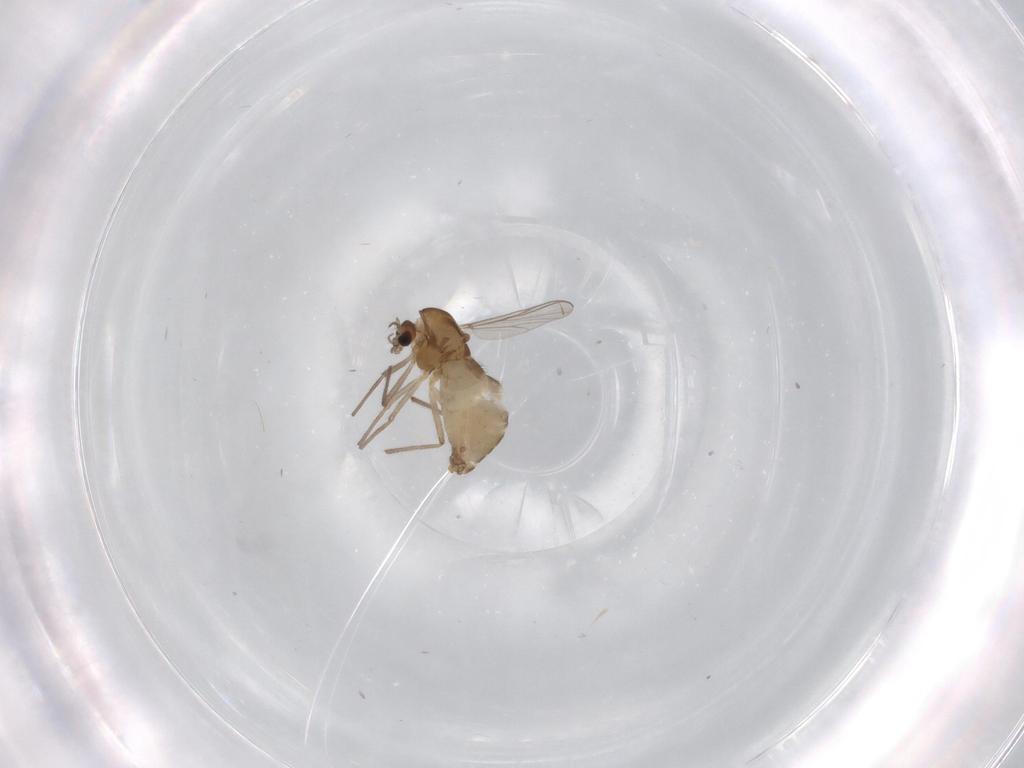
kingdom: Animalia
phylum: Arthropoda
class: Insecta
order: Diptera
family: Chironomidae
